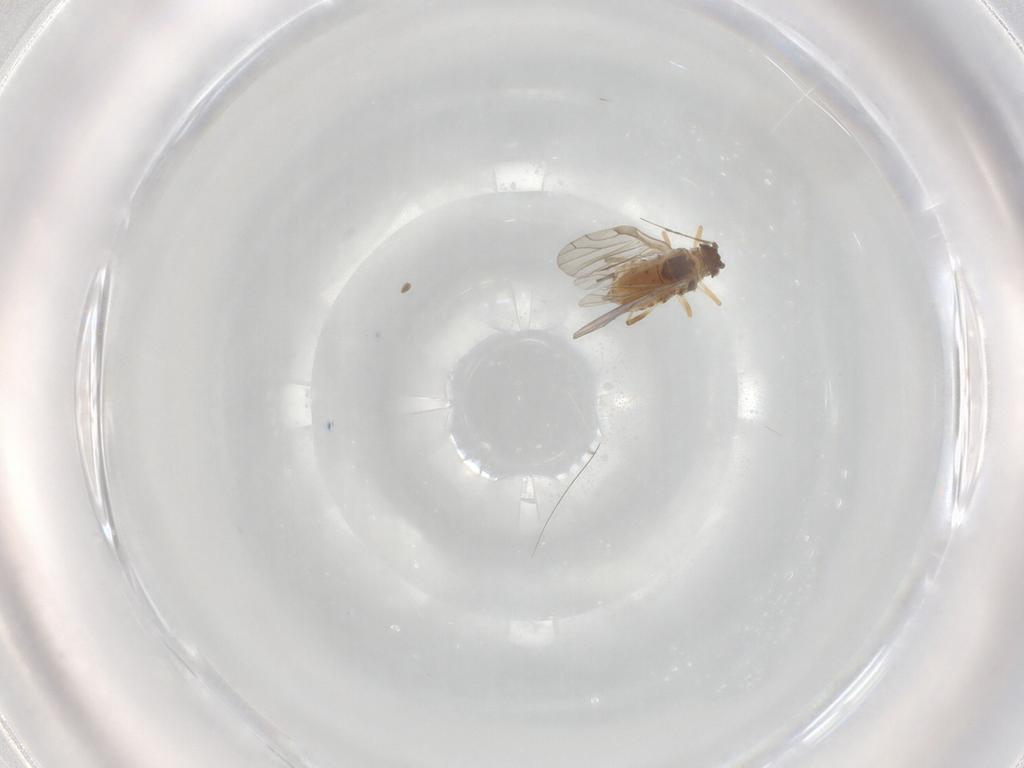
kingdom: Animalia
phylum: Arthropoda
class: Insecta
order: Hemiptera
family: Aphididae
